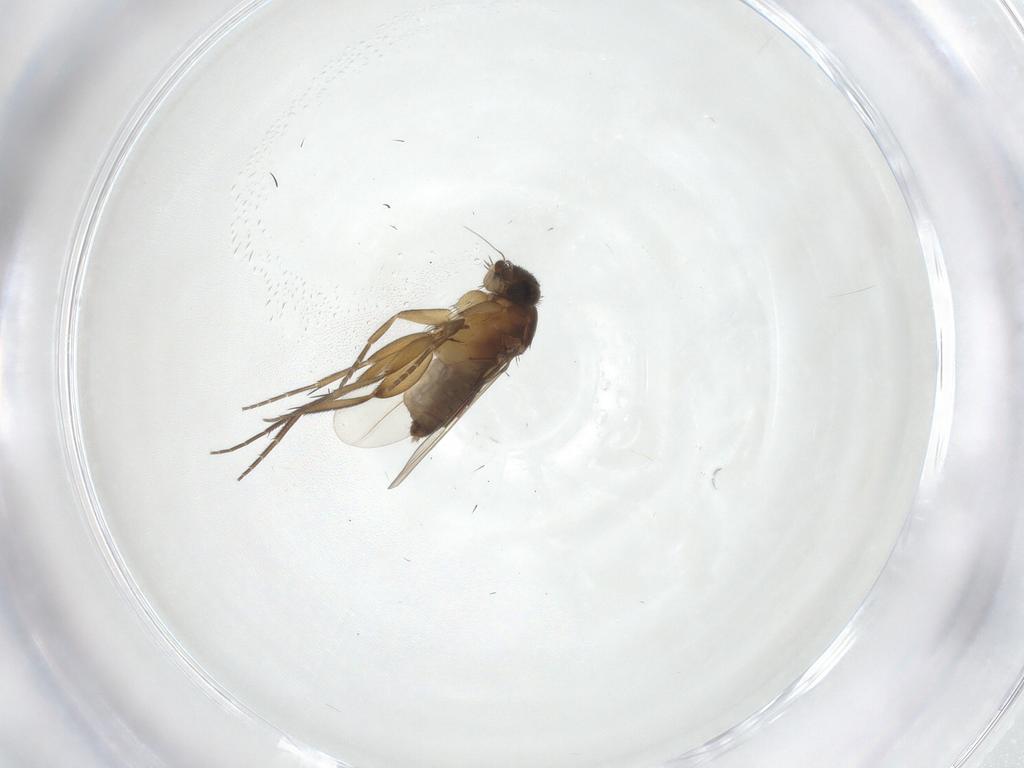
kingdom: Animalia
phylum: Arthropoda
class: Insecta
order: Diptera
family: Phoridae
